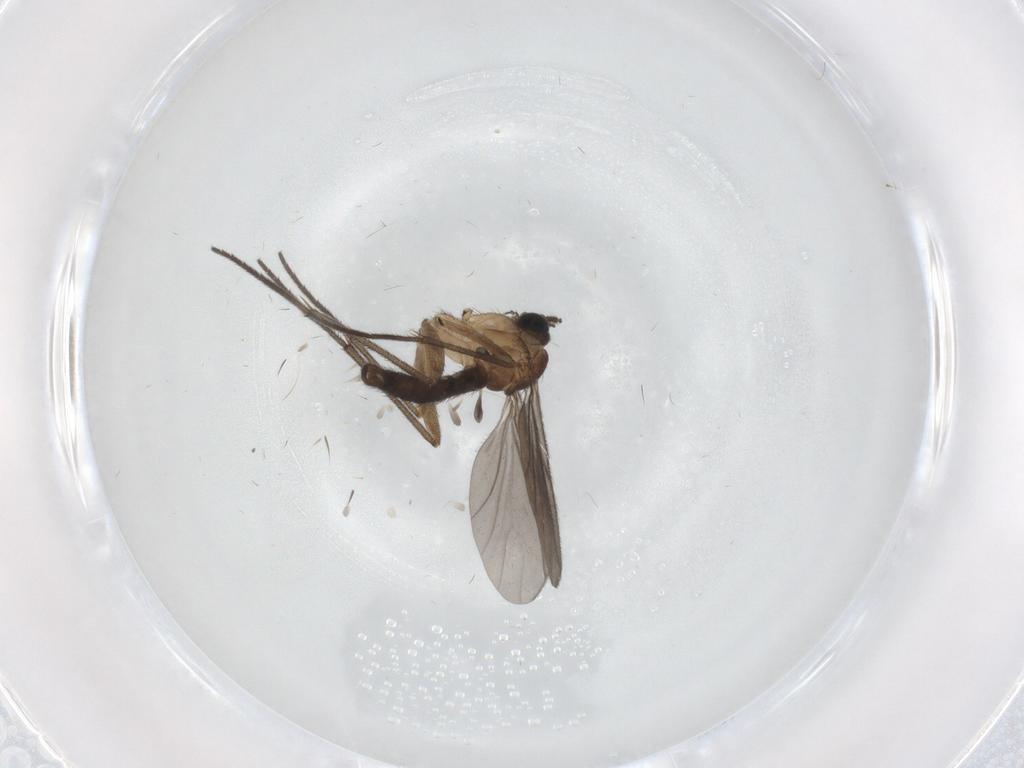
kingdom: Animalia
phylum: Arthropoda
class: Insecta
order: Diptera
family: Sciaridae
